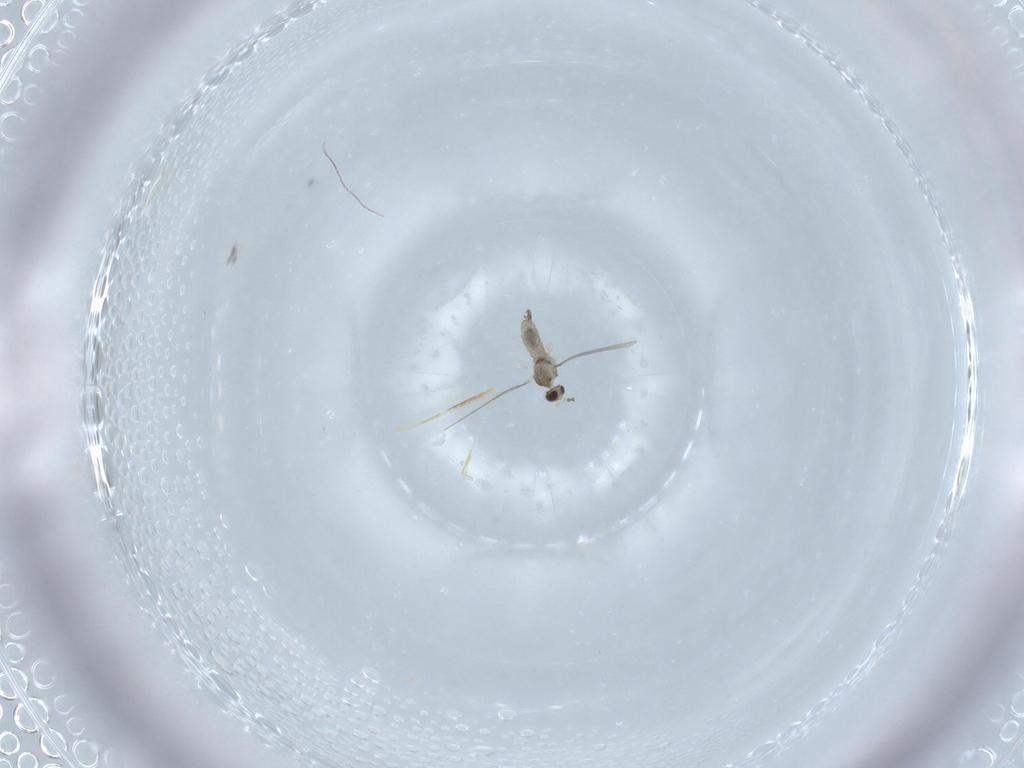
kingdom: Animalia
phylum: Arthropoda
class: Insecta
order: Diptera
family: Cecidomyiidae
